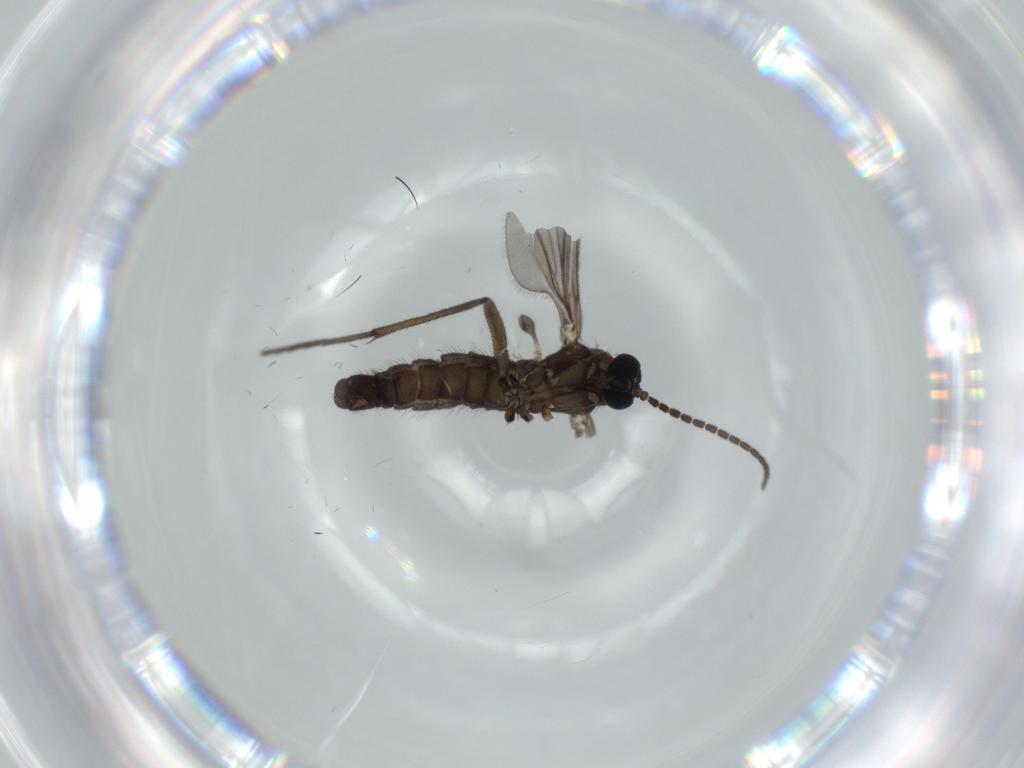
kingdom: Animalia
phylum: Arthropoda
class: Insecta
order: Diptera
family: Sciaridae
